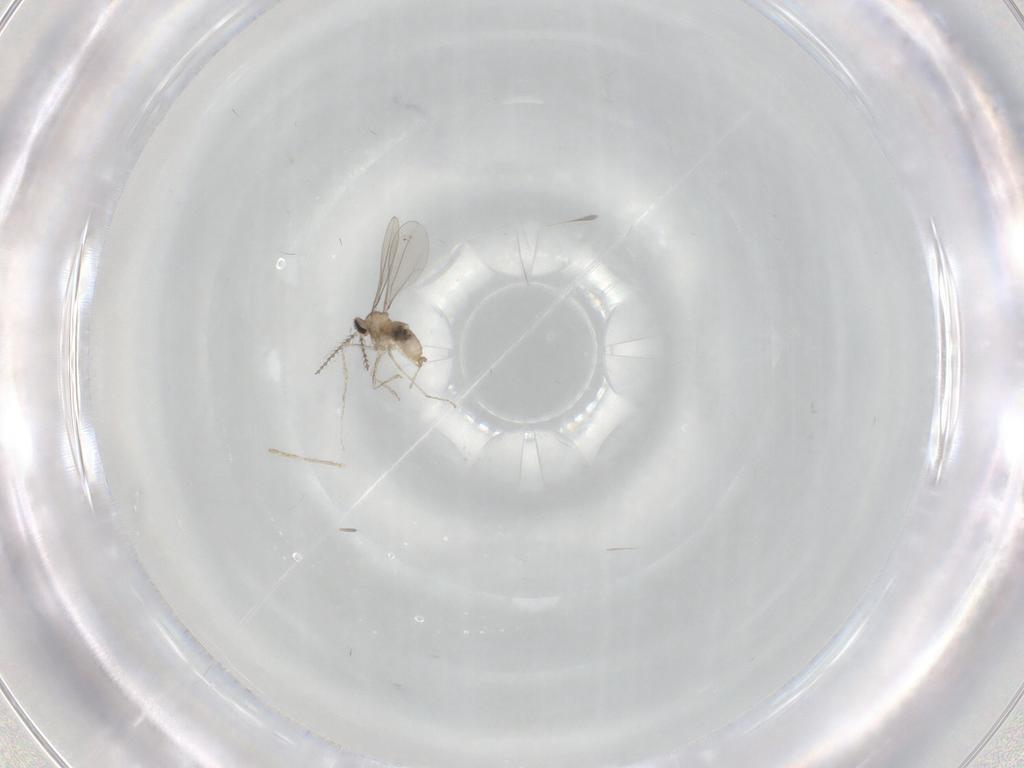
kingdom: Animalia
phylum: Arthropoda
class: Insecta
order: Diptera
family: Cecidomyiidae
